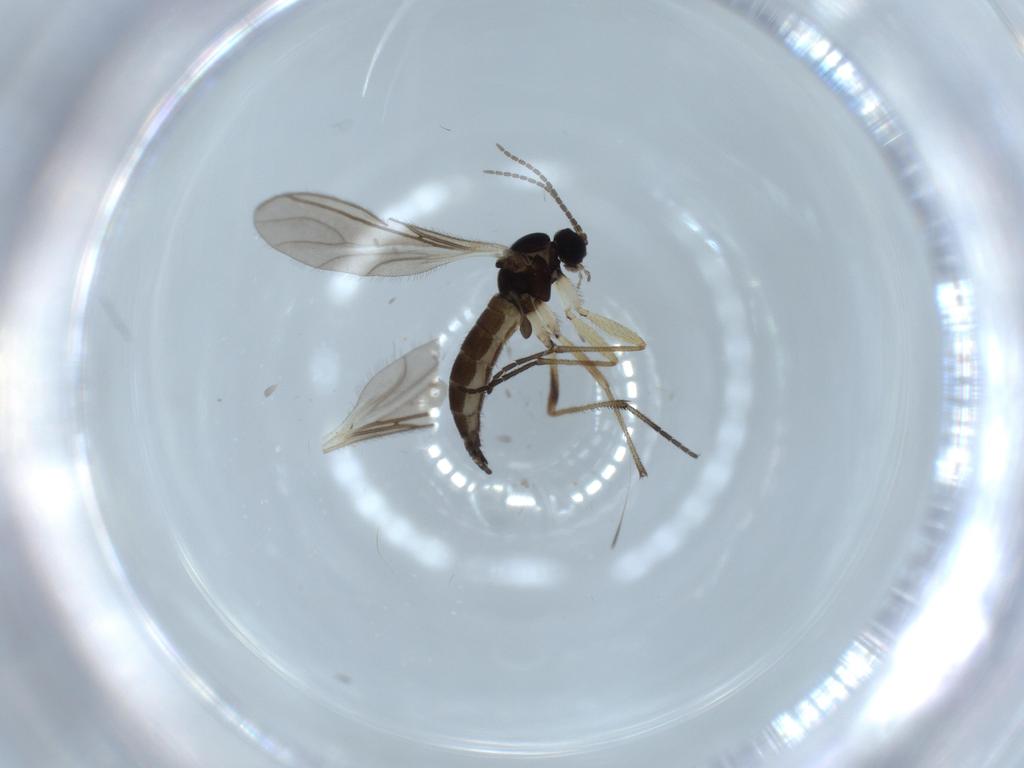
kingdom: Animalia
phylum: Arthropoda
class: Insecta
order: Diptera
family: Sciaridae
